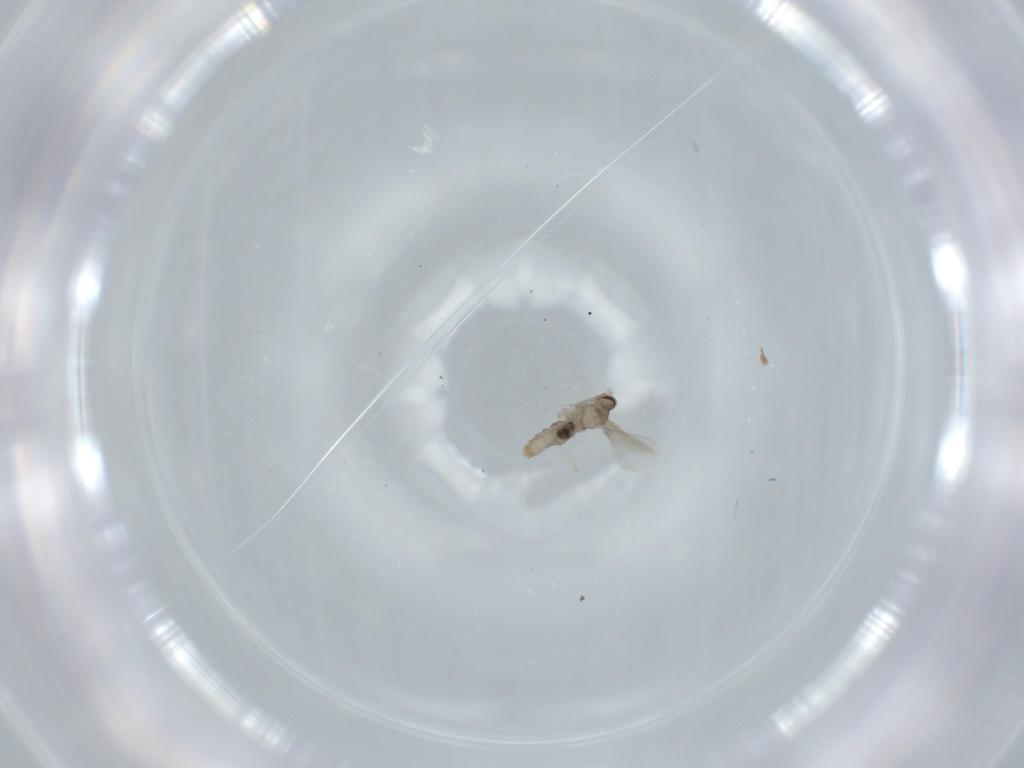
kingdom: Animalia
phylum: Arthropoda
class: Insecta
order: Diptera
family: Cecidomyiidae
